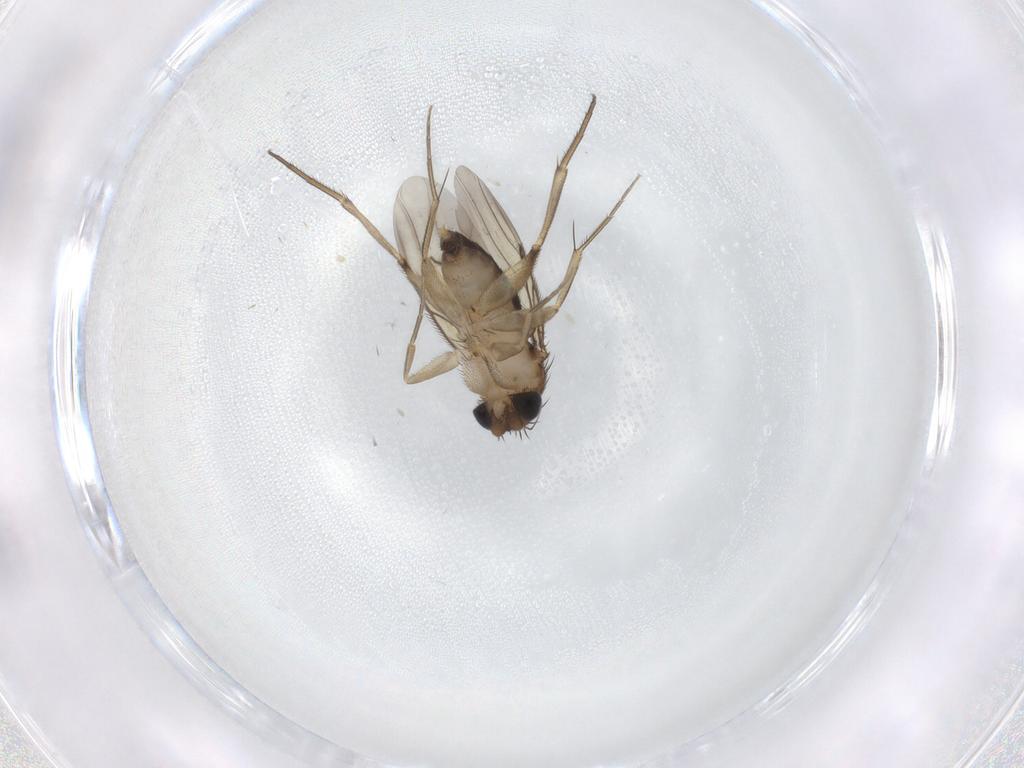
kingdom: Animalia
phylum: Arthropoda
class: Insecta
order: Diptera
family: Phoridae
